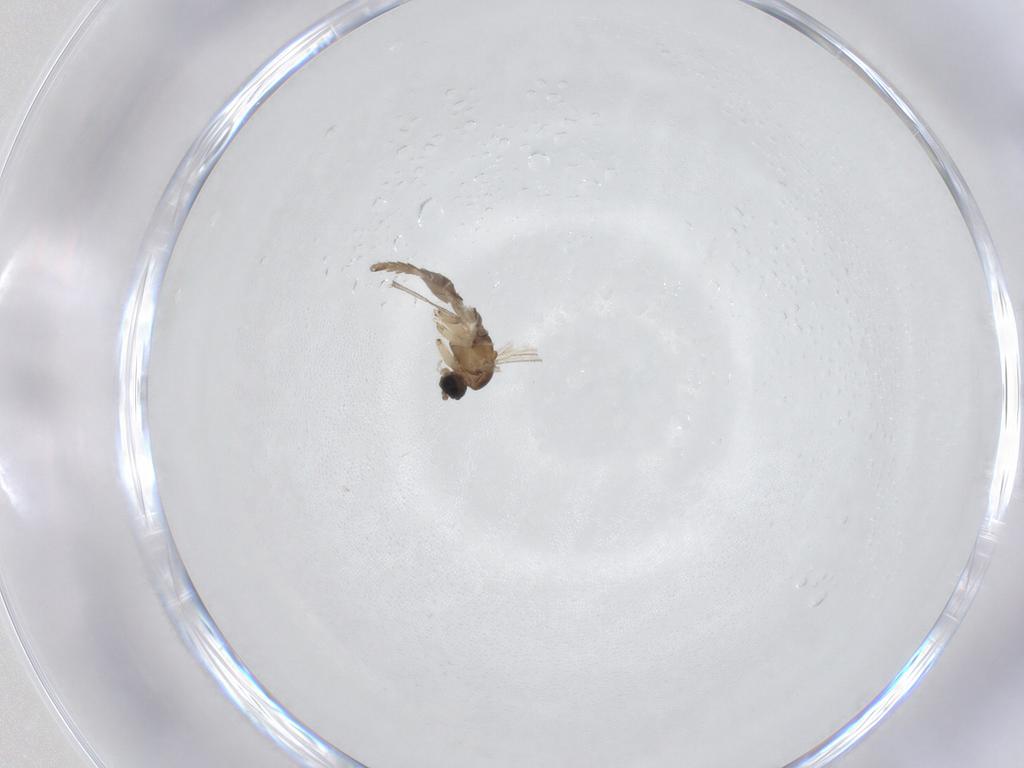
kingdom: Animalia
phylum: Arthropoda
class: Insecta
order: Diptera
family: Sciaridae
